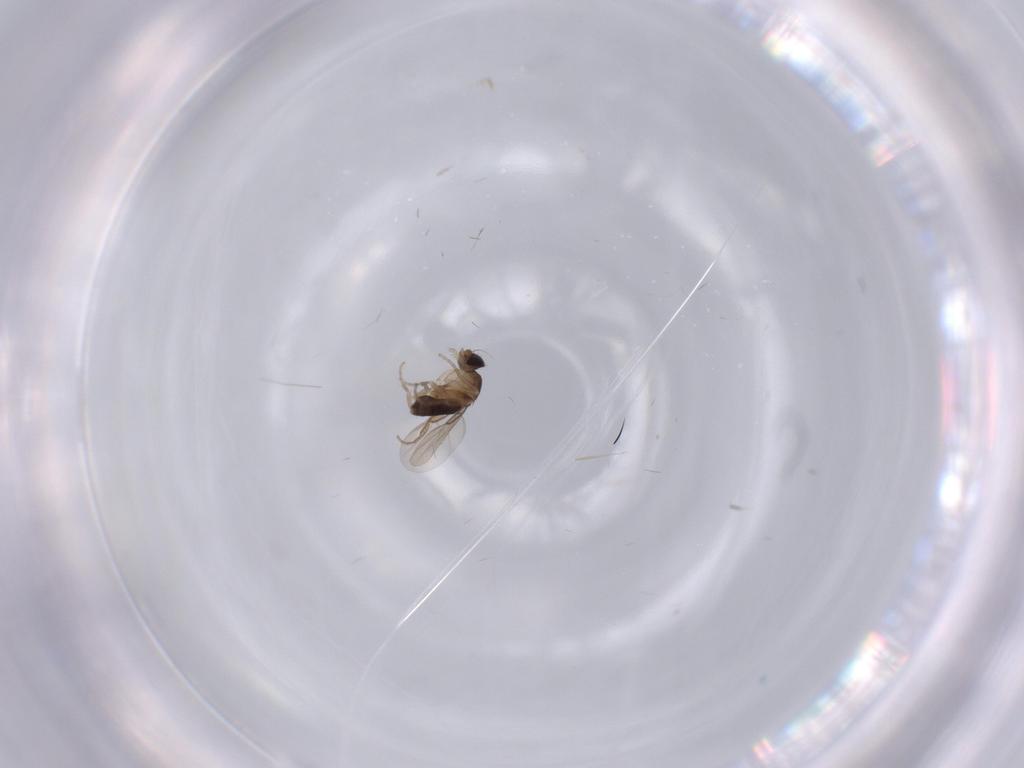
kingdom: Animalia
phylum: Arthropoda
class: Insecta
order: Diptera
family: Phoridae
